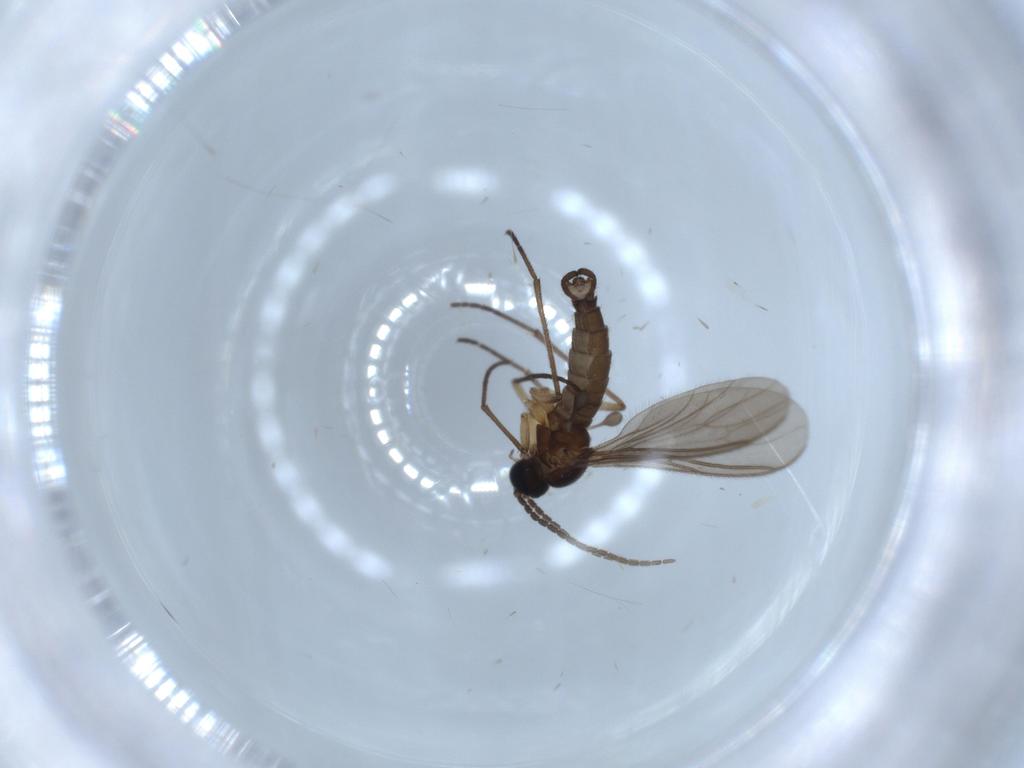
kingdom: Animalia
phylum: Arthropoda
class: Insecta
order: Diptera
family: Sciaridae
